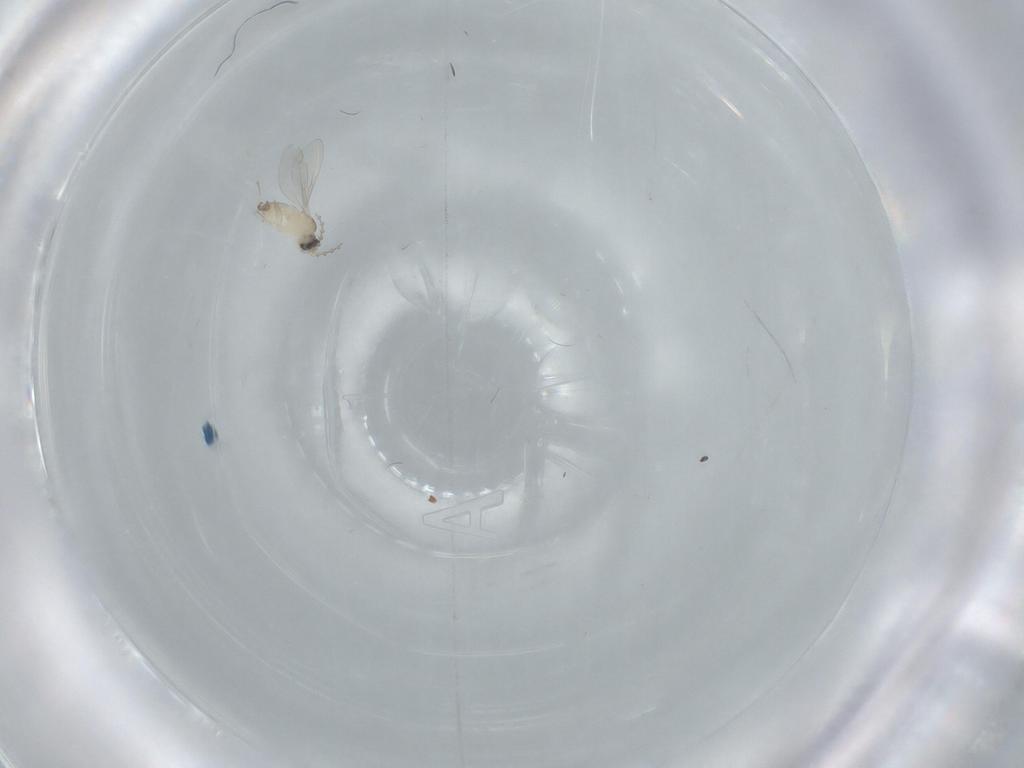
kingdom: Animalia
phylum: Arthropoda
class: Insecta
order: Diptera
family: Cecidomyiidae
